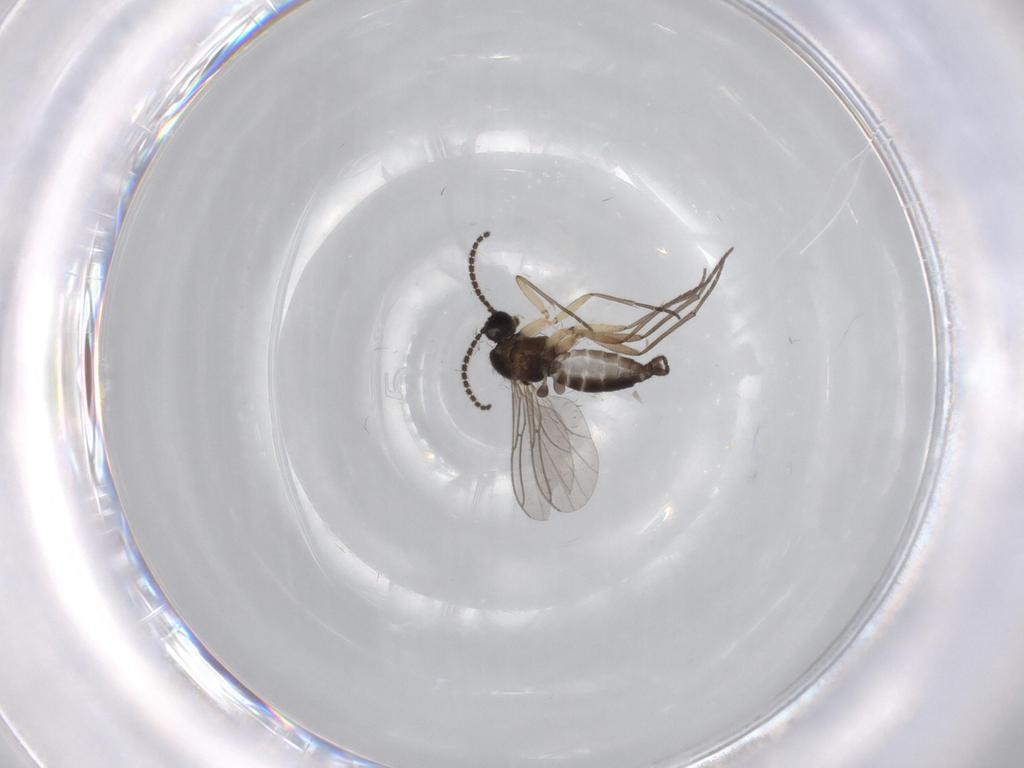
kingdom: Animalia
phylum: Arthropoda
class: Insecta
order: Diptera
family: Sciaridae
